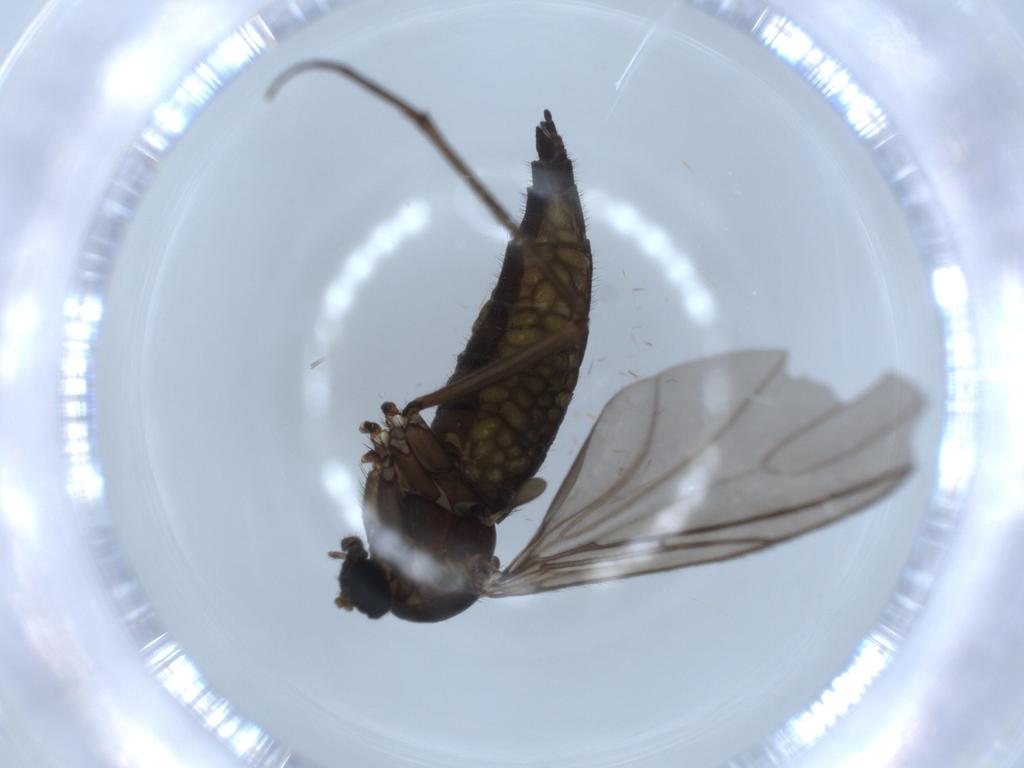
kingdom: Animalia
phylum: Arthropoda
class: Insecta
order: Diptera
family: Sciaridae
